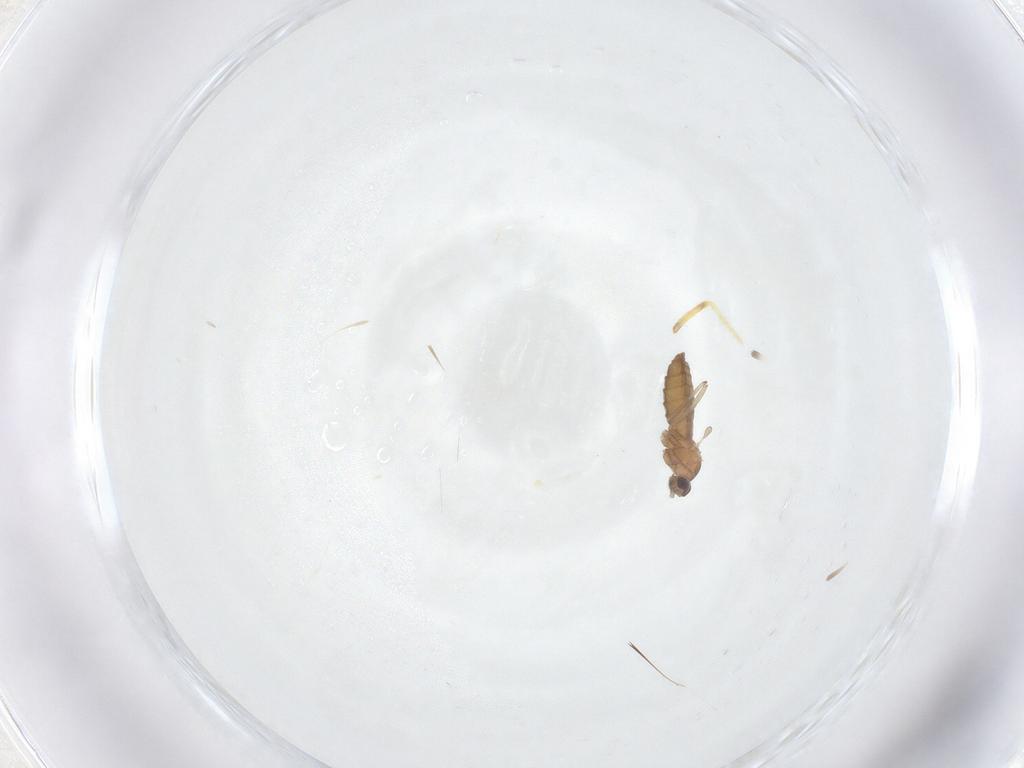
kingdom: Animalia
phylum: Arthropoda
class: Insecta
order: Diptera
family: Cecidomyiidae
